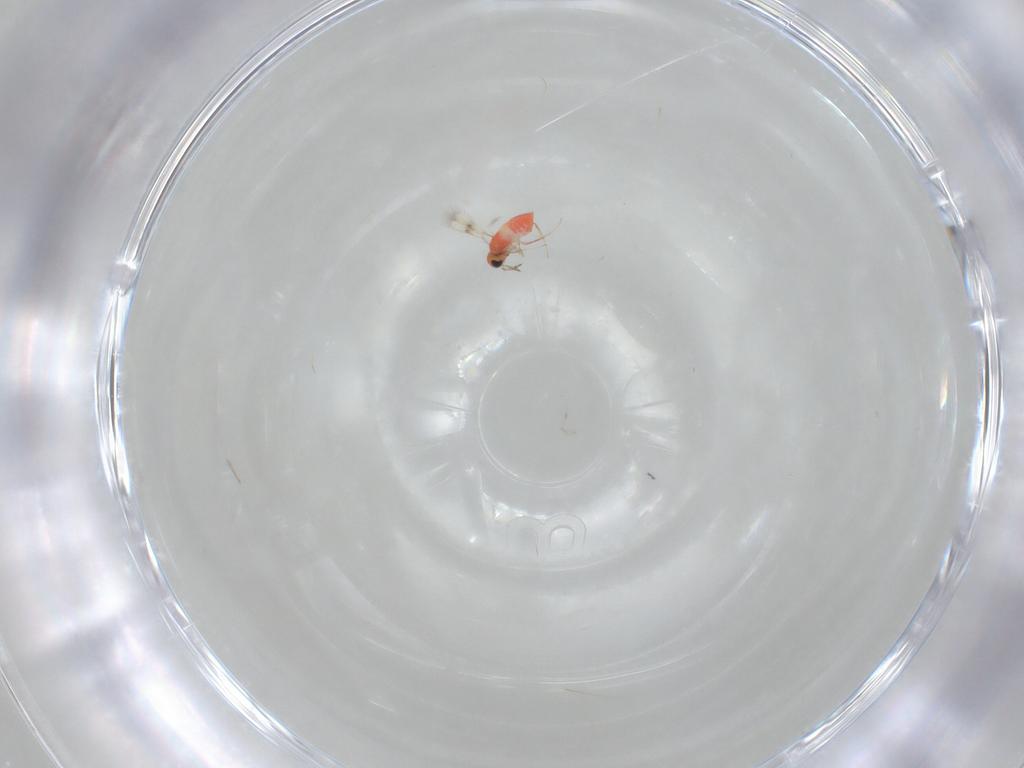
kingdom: Animalia
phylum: Arthropoda
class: Insecta
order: Hymenoptera
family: Trichogrammatidae
